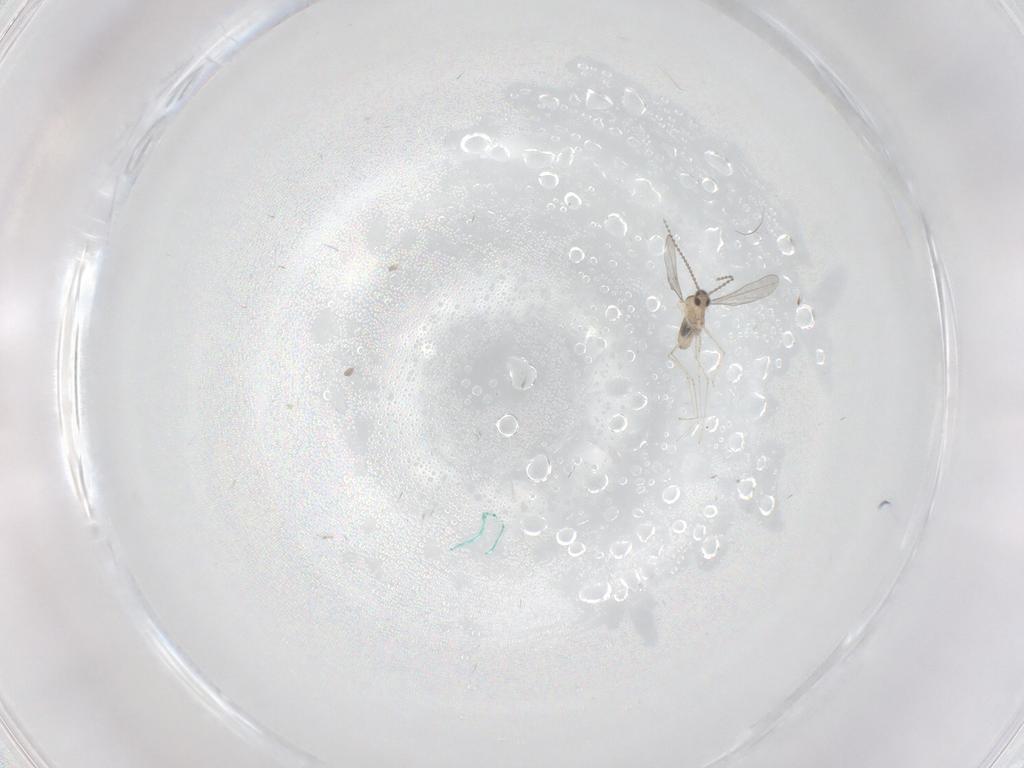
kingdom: Animalia
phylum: Arthropoda
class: Insecta
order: Diptera
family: Cecidomyiidae
